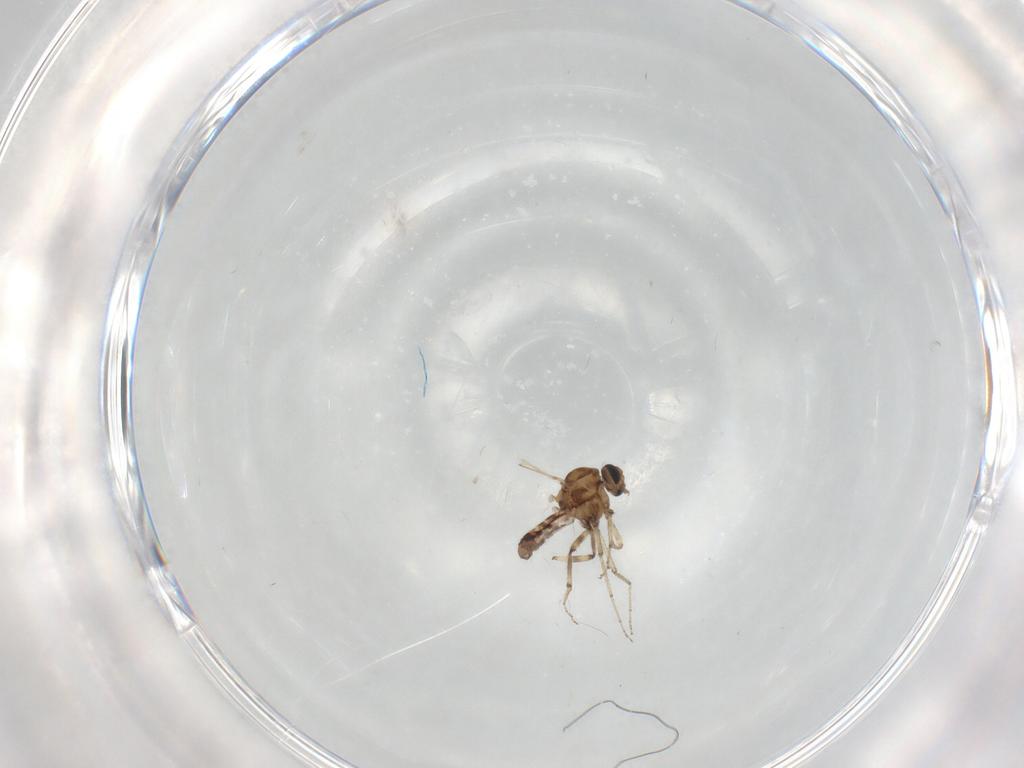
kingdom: Animalia
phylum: Arthropoda
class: Insecta
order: Diptera
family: Ceratopogonidae
